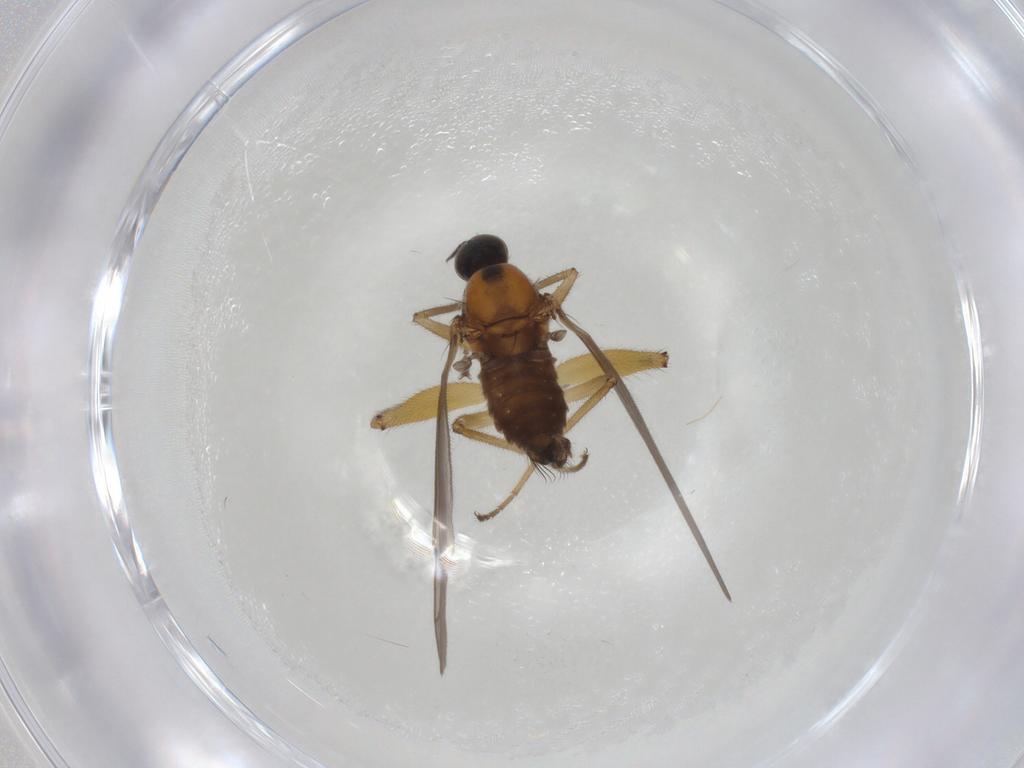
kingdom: Animalia
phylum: Arthropoda
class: Insecta
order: Diptera
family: Hybotidae
